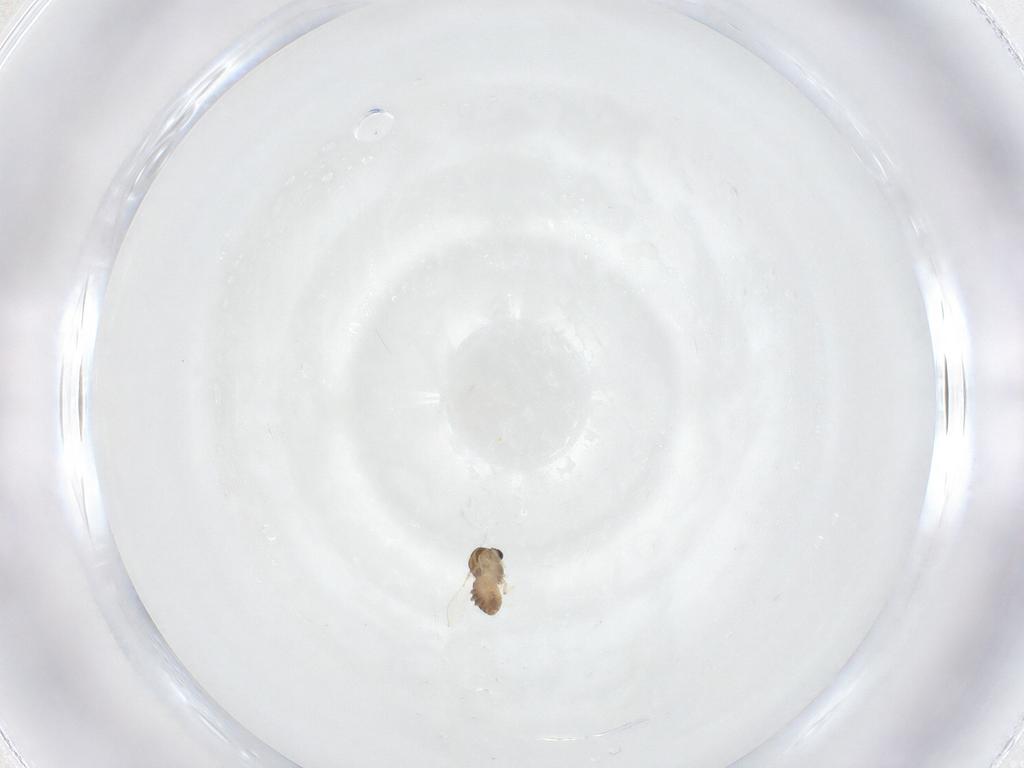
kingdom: Animalia
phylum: Arthropoda
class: Insecta
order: Diptera
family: Chironomidae
